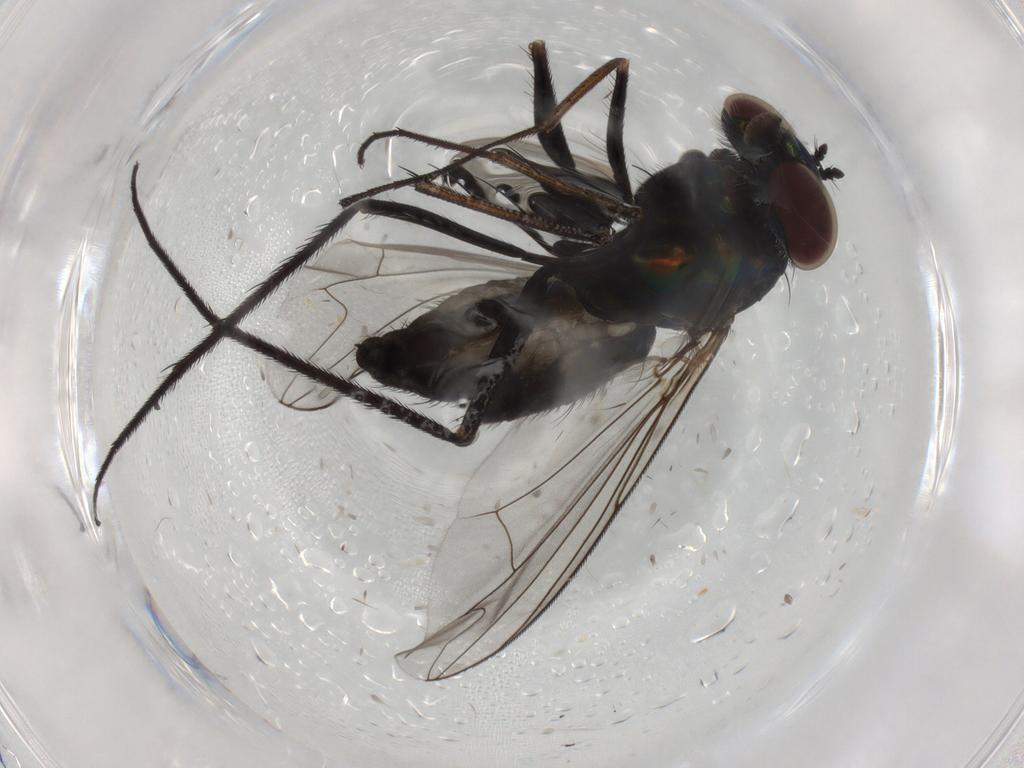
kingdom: Animalia
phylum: Arthropoda
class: Insecta
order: Diptera
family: Dolichopodidae
